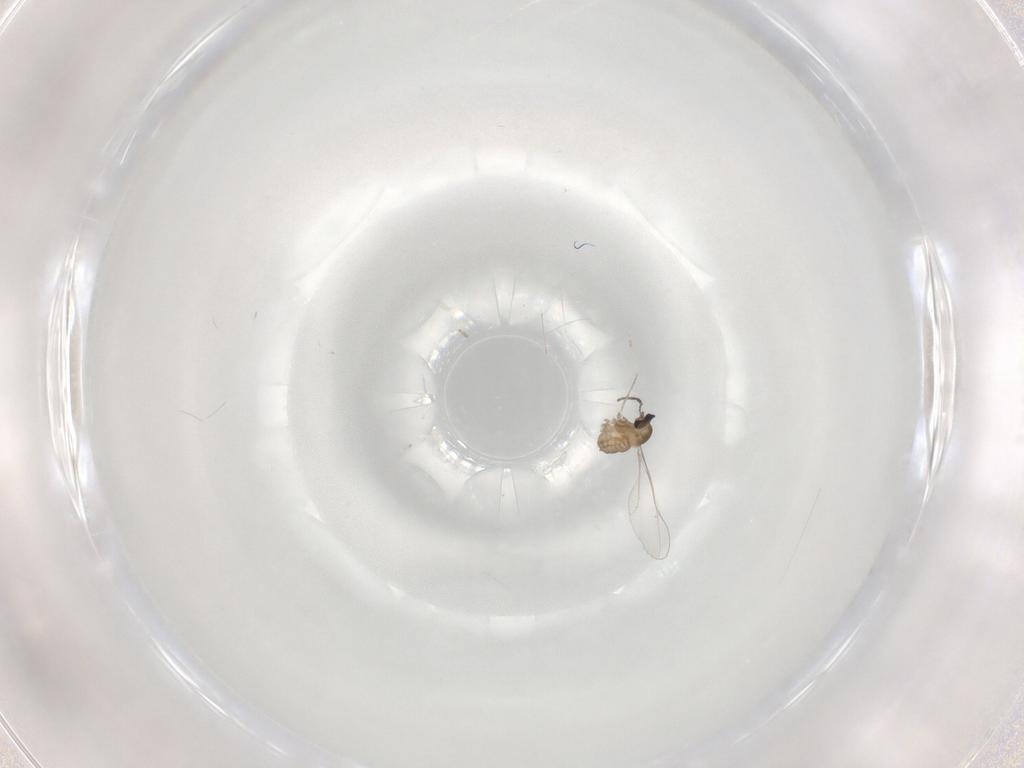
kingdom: Animalia
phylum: Arthropoda
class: Insecta
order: Diptera
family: Cecidomyiidae
